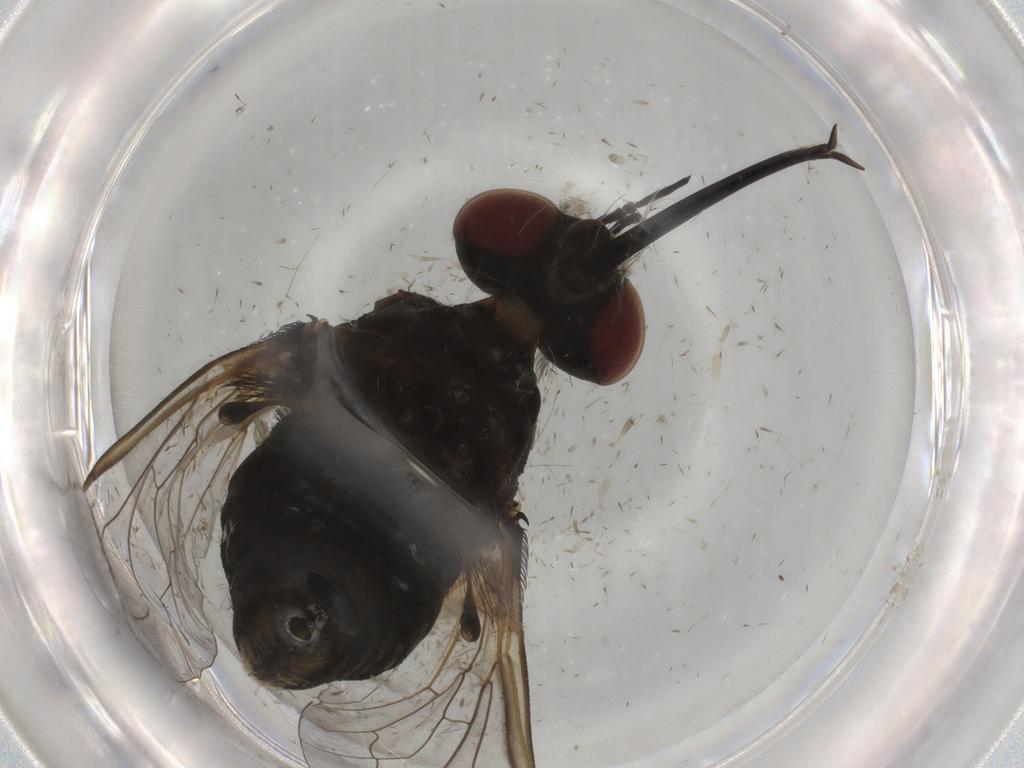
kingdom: Animalia
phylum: Arthropoda
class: Insecta
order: Diptera
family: Bombyliidae
